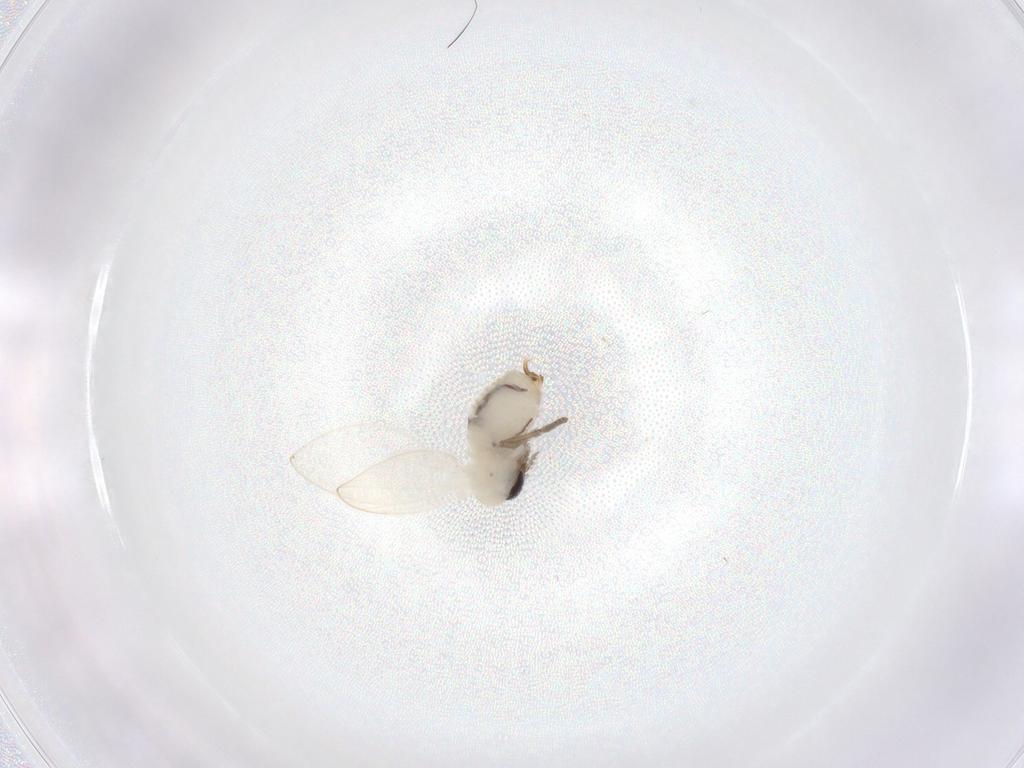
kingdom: Animalia
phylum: Arthropoda
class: Insecta
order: Diptera
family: Psychodidae
